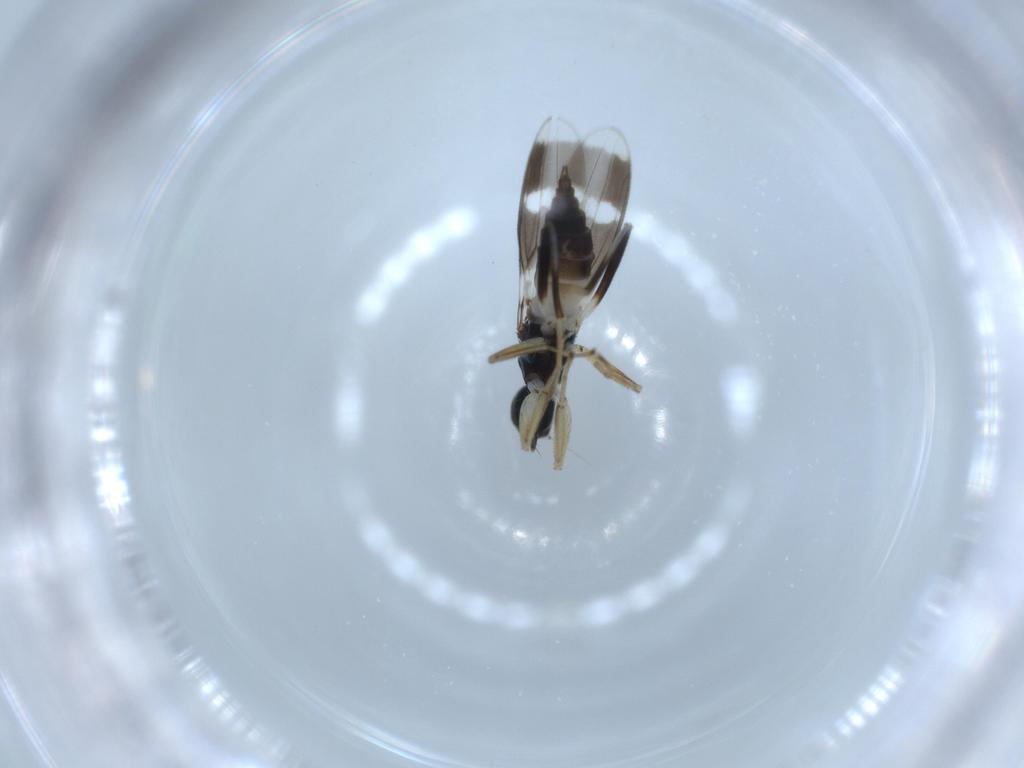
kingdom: Animalia
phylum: Arthropoda
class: Insecta
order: Diptera
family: Hybotidae
